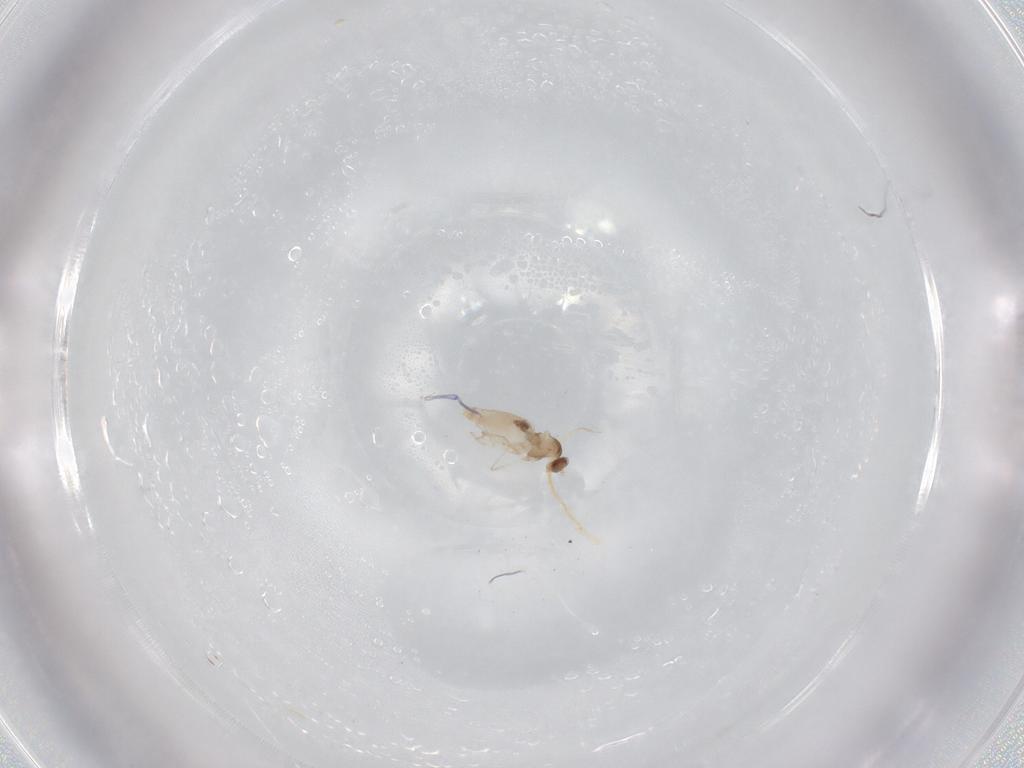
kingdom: Animalia
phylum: Arthropoda
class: Insecta
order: Diptera
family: Cecidomyiidae
